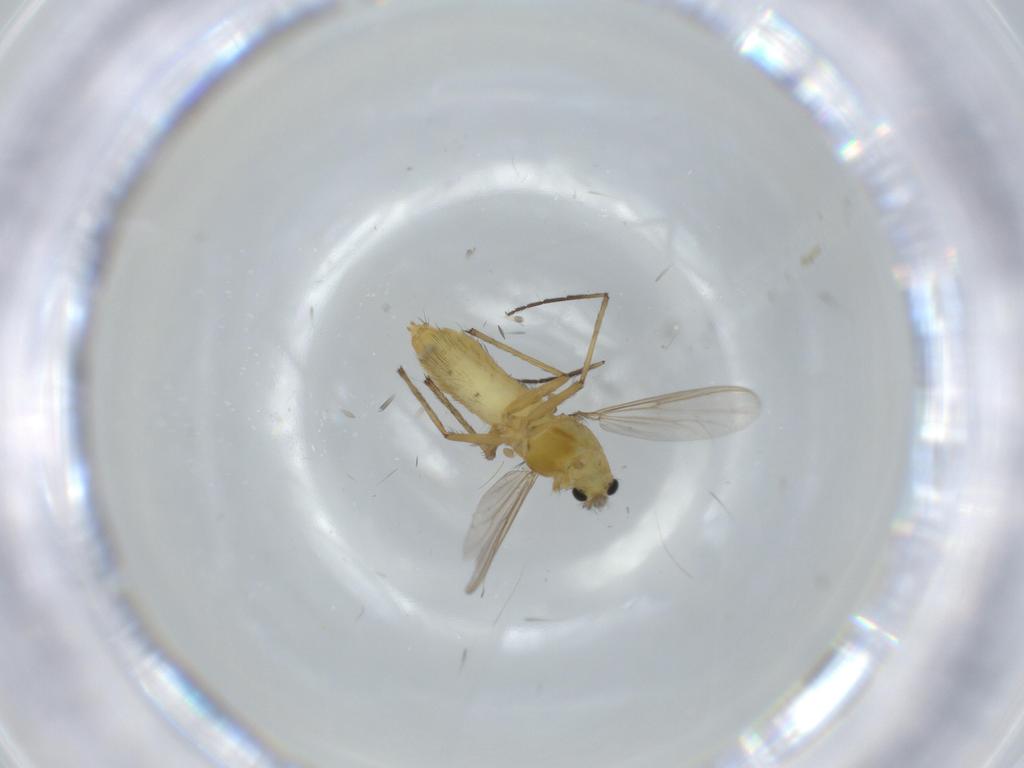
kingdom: Animalia
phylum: Arthropoda
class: Insecta
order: Diptera
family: Chironomidae
